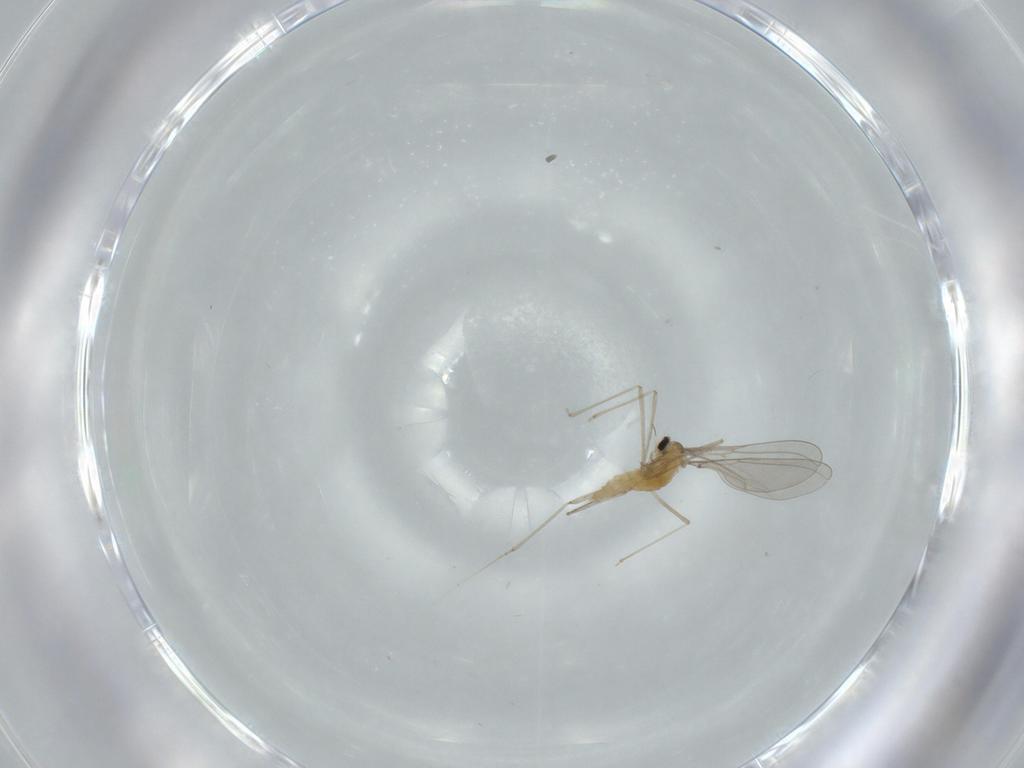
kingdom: Animalia
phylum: Arthropoda
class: Insecta
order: Diptera
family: Cecidomyiidae
